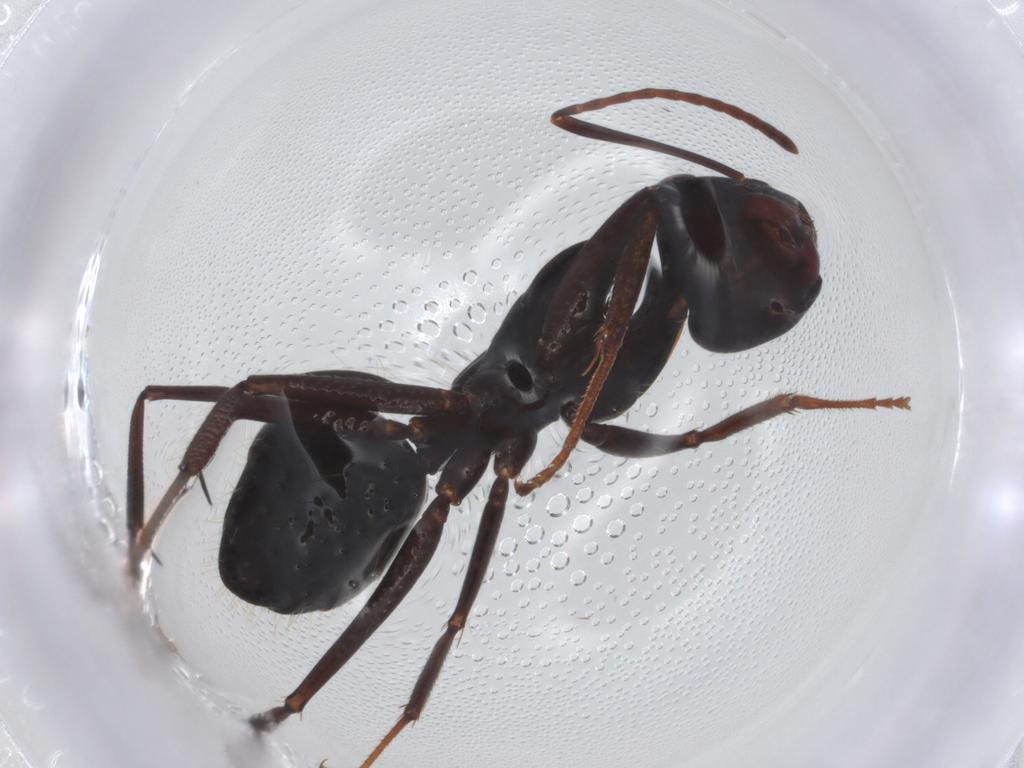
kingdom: Animalia
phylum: Arthropoda
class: Insecta
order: Hymenoptera
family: Formicidae
